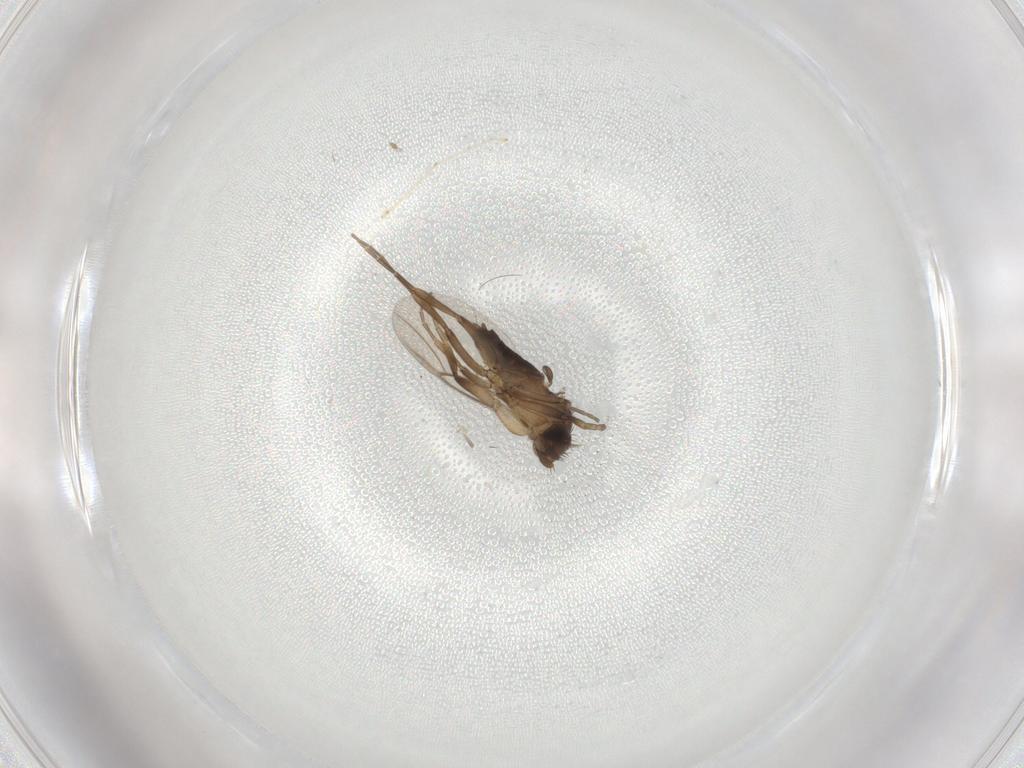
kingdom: Animalia
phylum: Arthropoda
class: Insecta
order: Diptera
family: Phoridae
